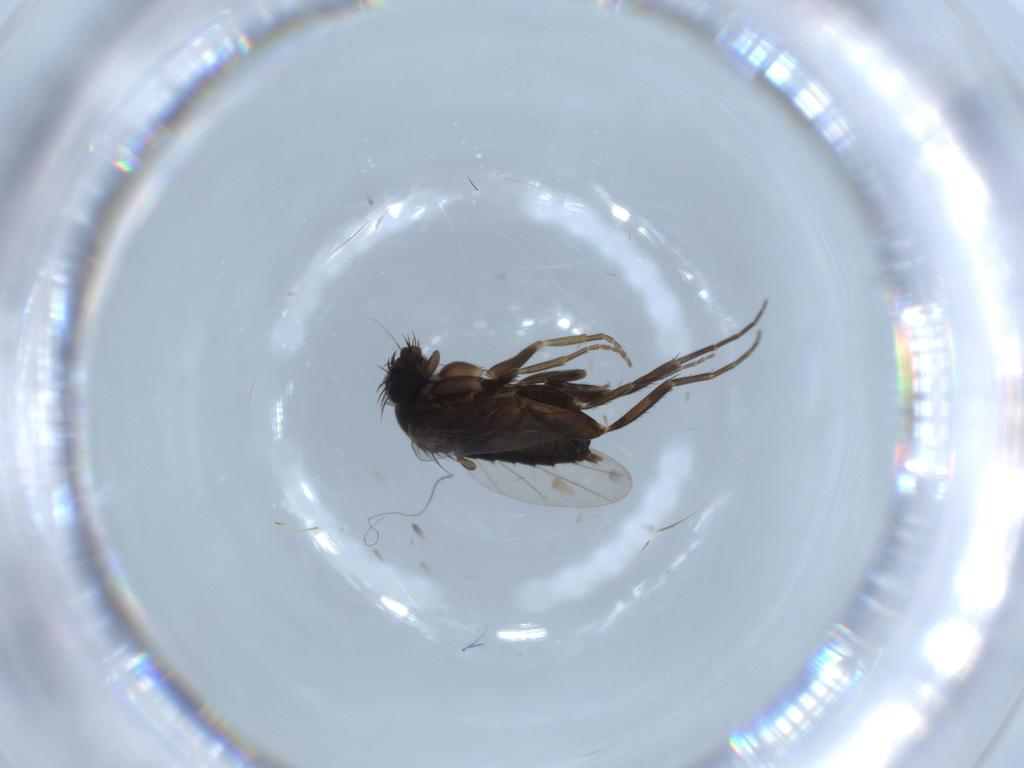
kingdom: Animalia
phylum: Arthropoda
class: Insecta
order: Diptera
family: Phoridae
